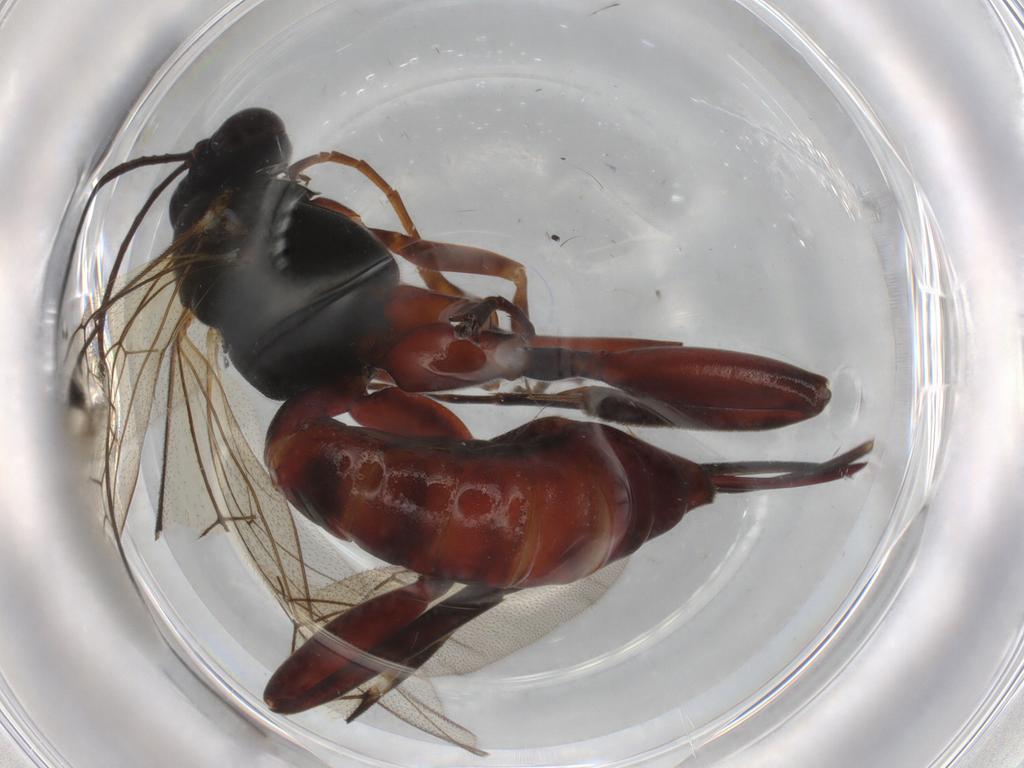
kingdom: Animalia
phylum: Arthropoda
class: Insecta
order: Diptera
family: Drosophilidae
